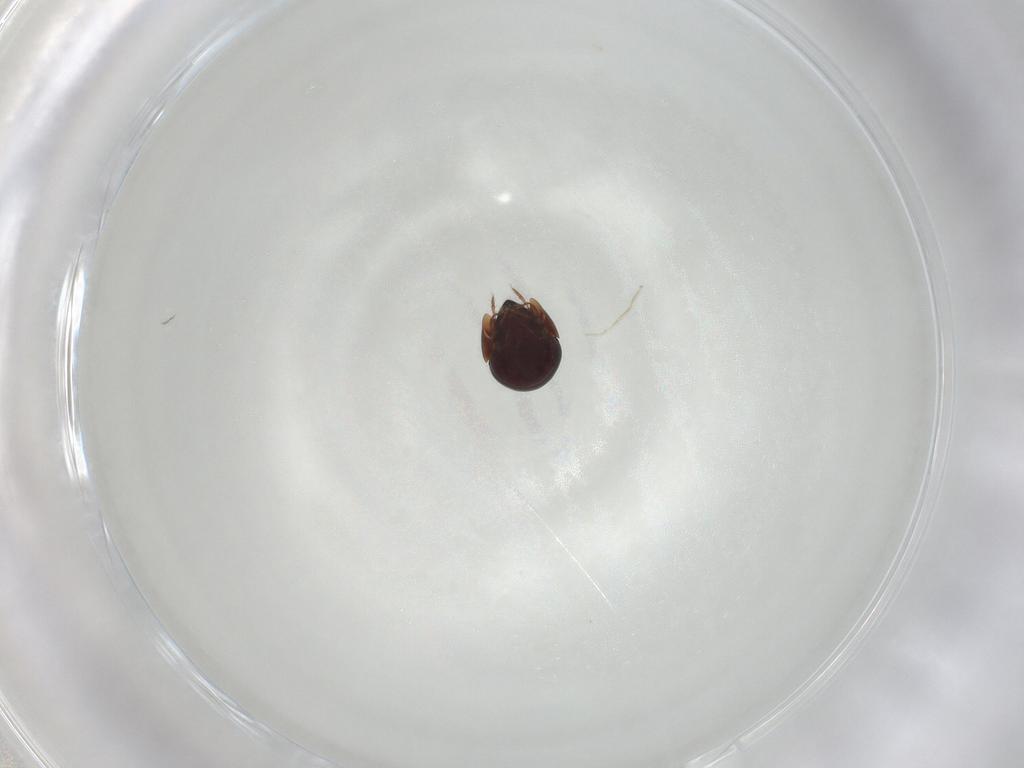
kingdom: Animalia
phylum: Arthropoda
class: Arachnida
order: Sarcoptiformes
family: Galumnidae
